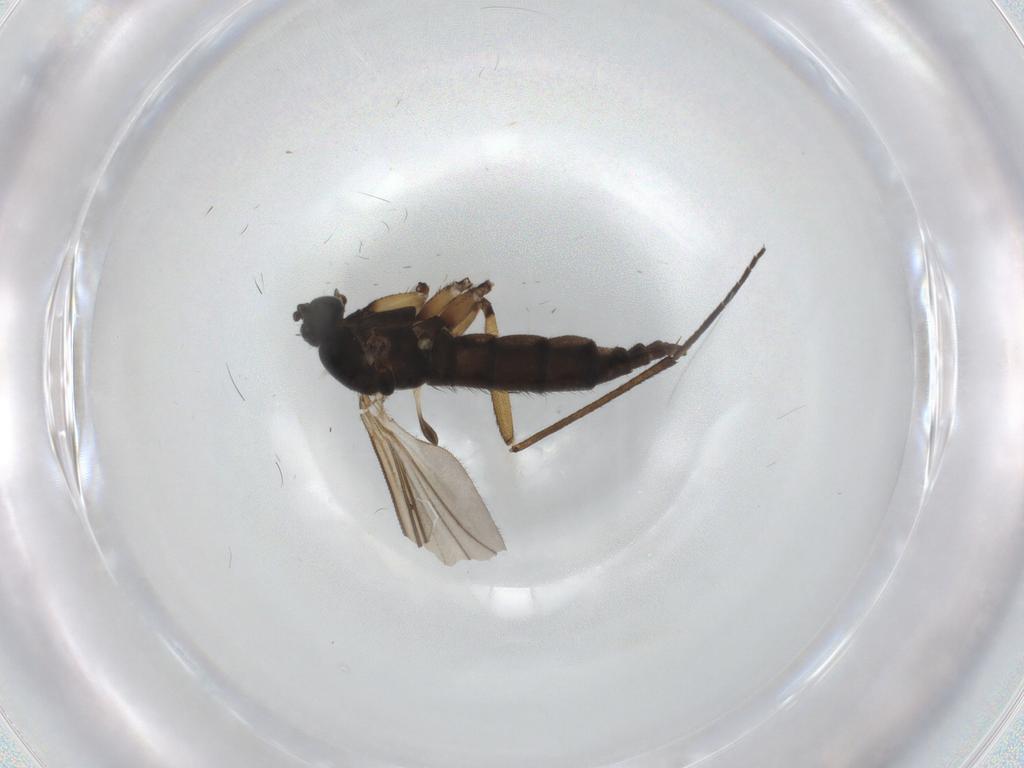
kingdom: Animalia
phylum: Arthropoda
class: Insecta
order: Diptera
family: Sciaridae
